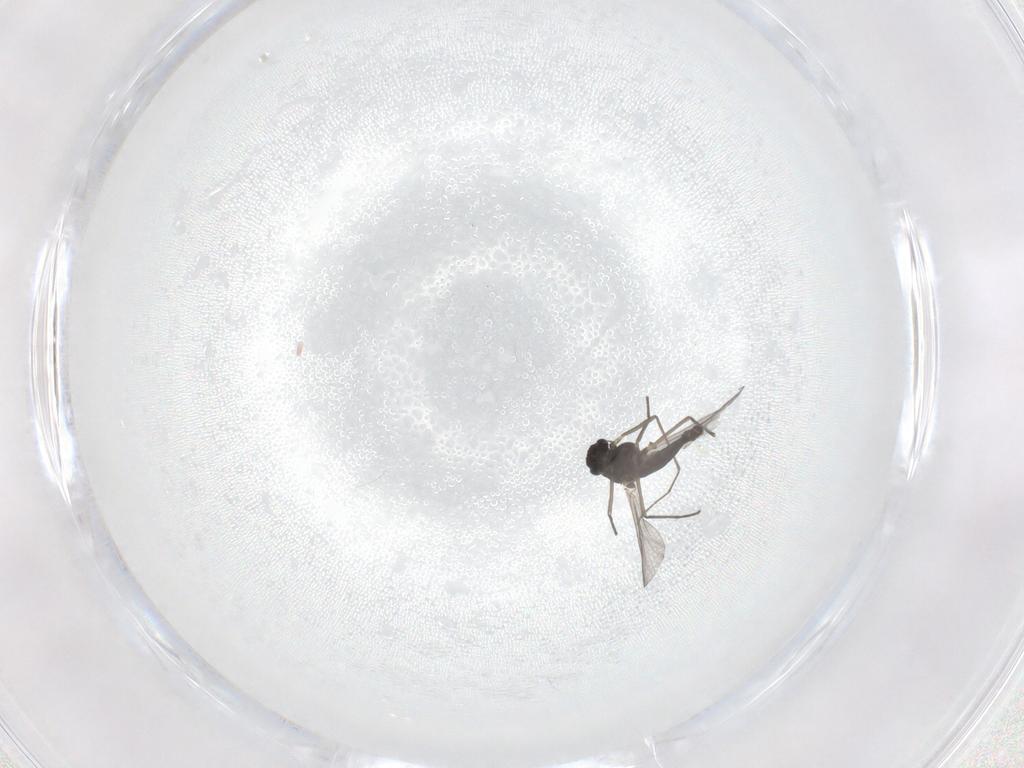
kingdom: Animalia
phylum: Arthropoda
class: Insecta
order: Diptera
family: Chironomidae
